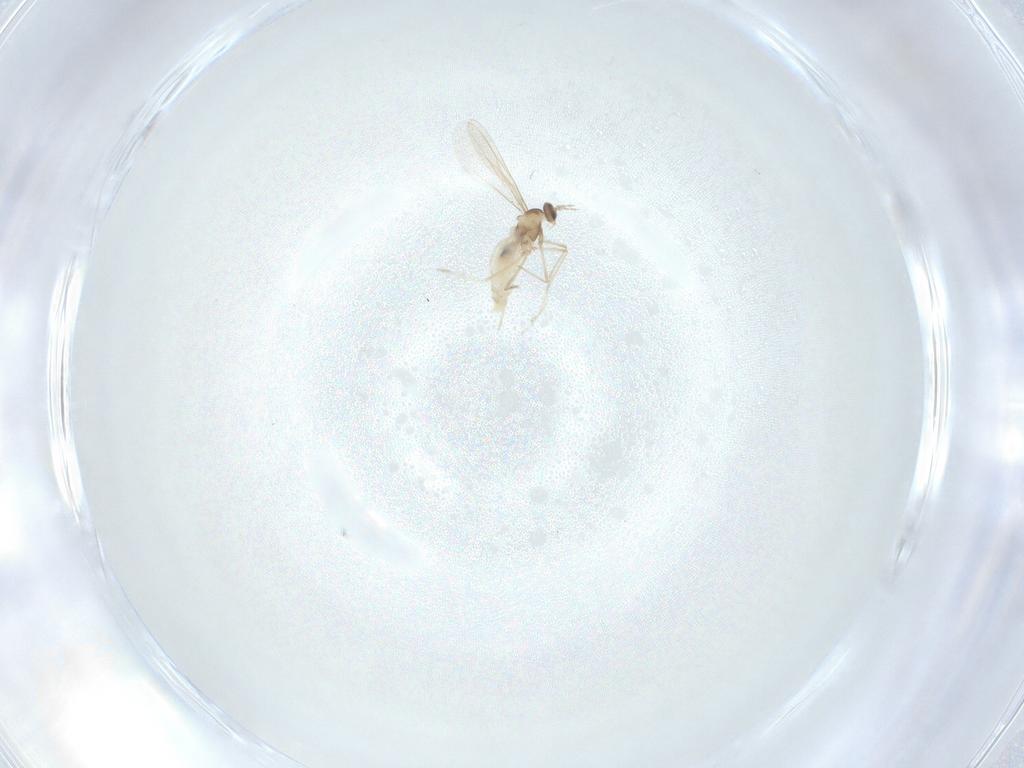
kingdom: Animalia
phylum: Arthropoda
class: Insecta
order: Diptera
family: Cecidomyiidae
